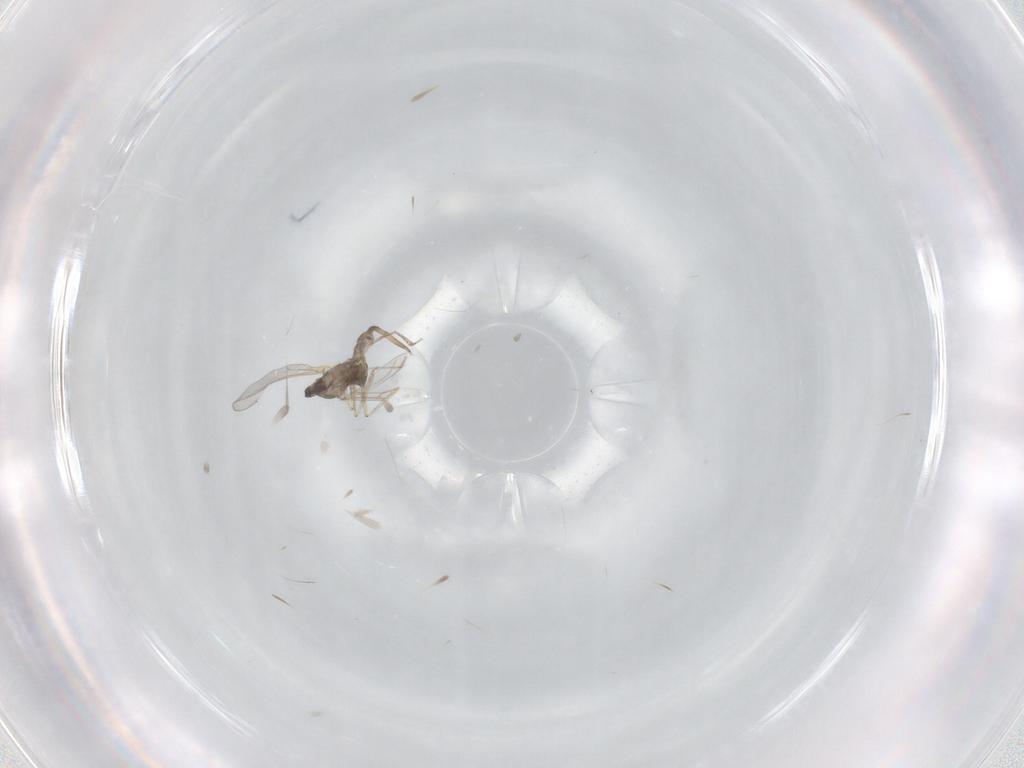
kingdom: Animalia
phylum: Arthropoda
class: Insecta
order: Diptera
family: Cecidomyiidae
